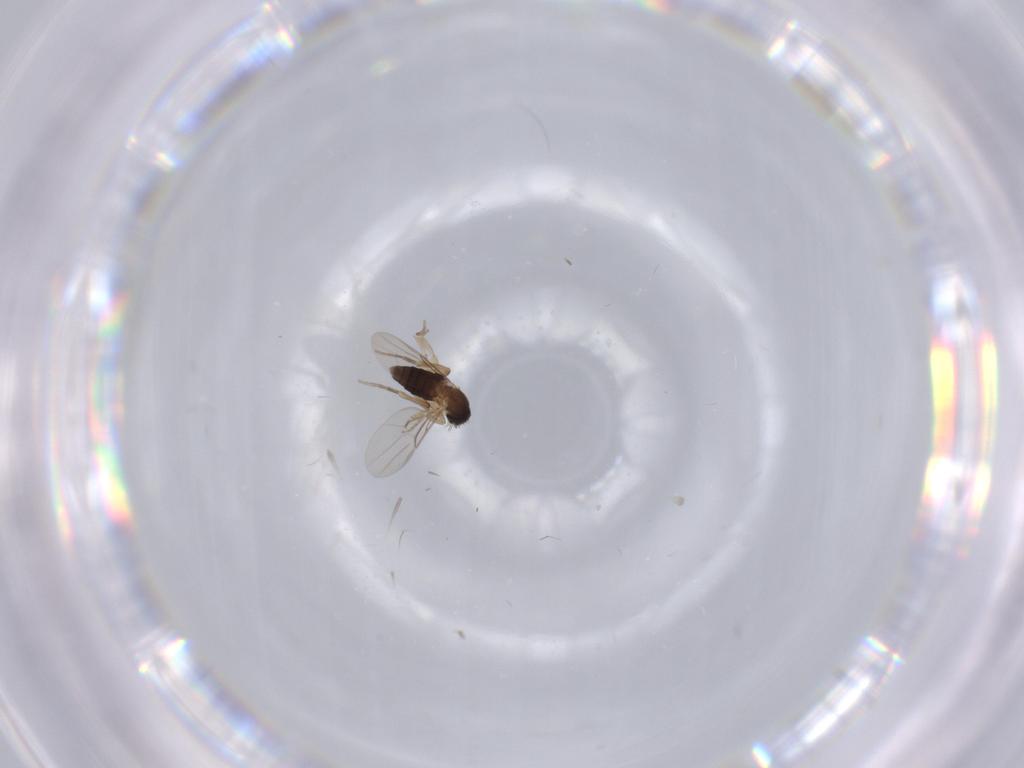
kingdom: Animalia
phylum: Arthropoda
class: Insecta
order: Diptera
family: Phoridae
